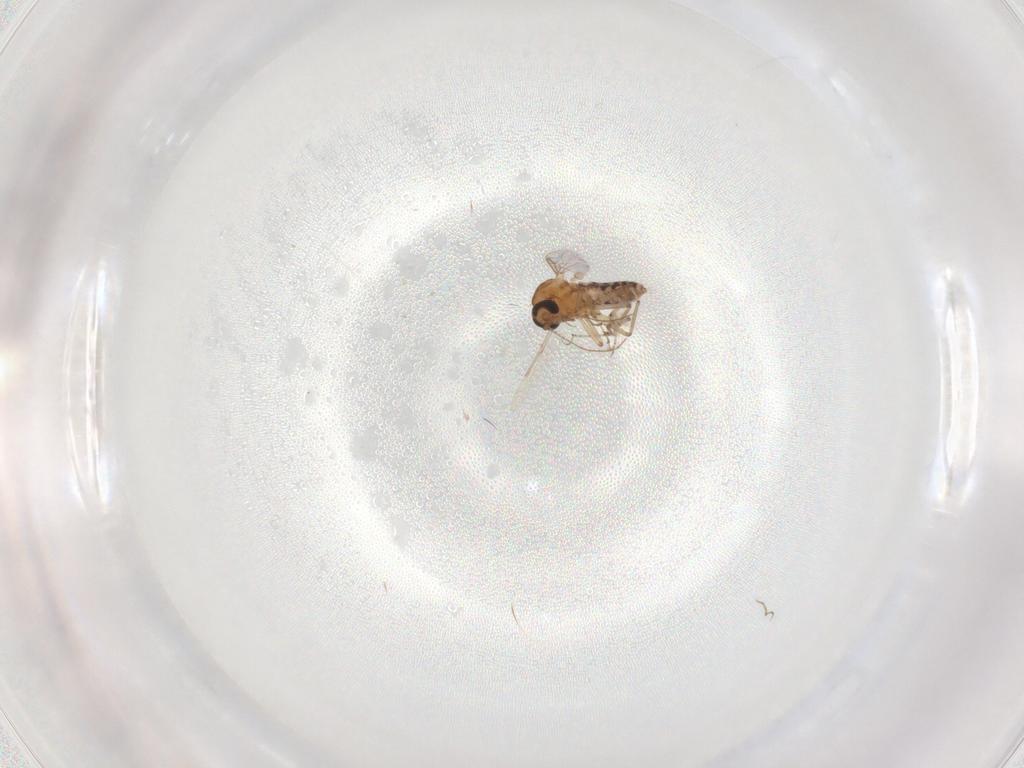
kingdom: Animalia
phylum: Arthropoda
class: Insecta
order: Diptera
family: Ceratopogonidae
